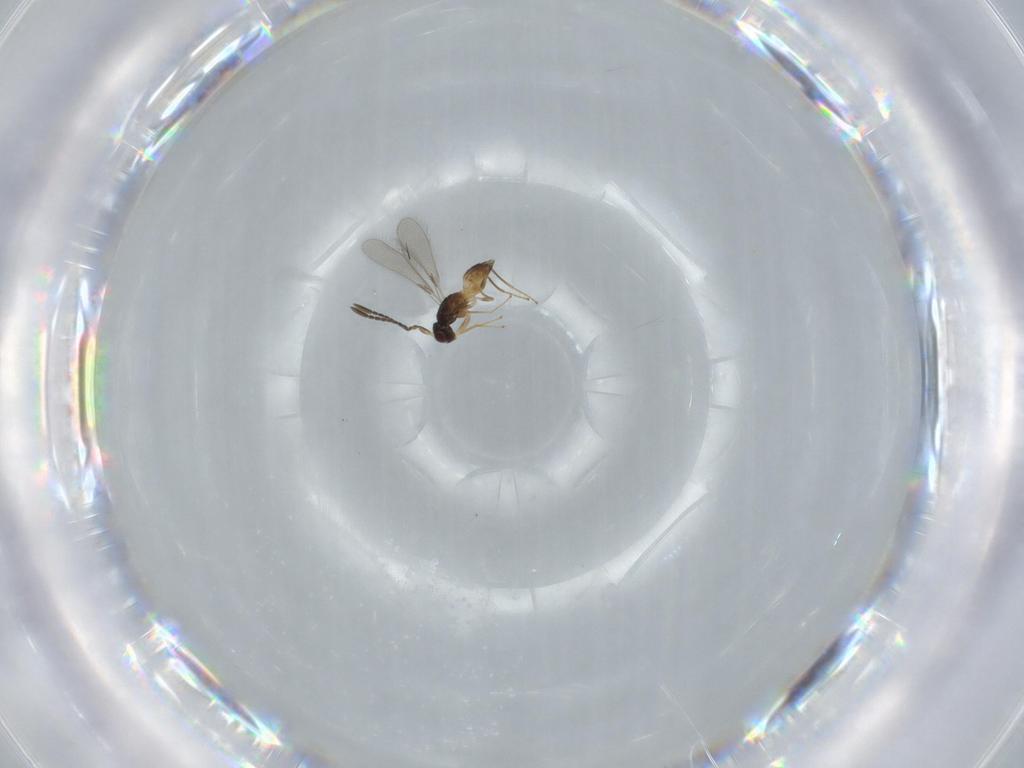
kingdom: Animalia
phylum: Arthropoda
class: Insecta
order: Hymenoptera
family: Mymaridae
